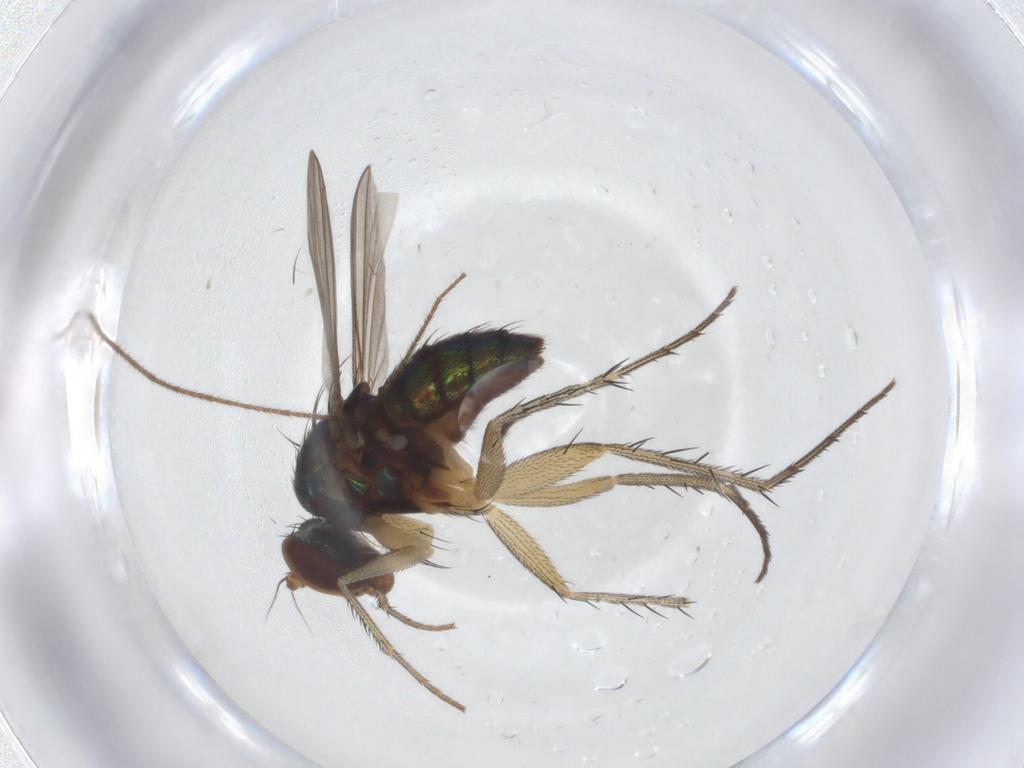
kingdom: Animalia
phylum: Arthropoda
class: Insecta
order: Diptera
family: Dolichopodidae
